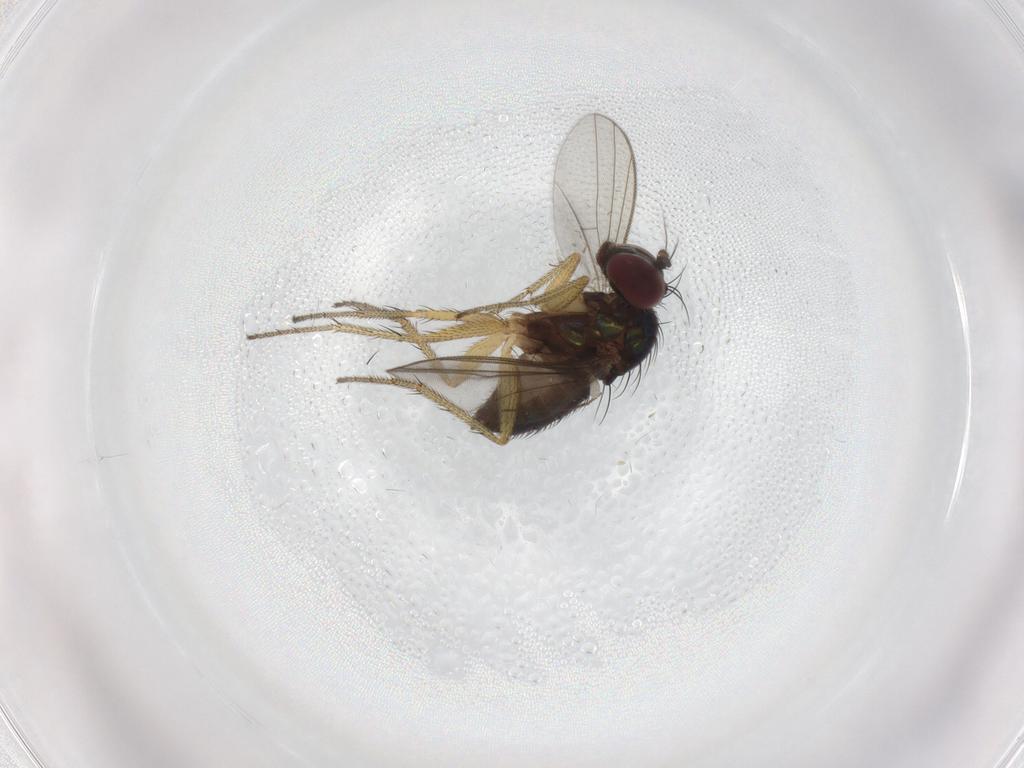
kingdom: Animalia
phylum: Arthropoda
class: Insecta
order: Diptera
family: Dolichopodidae
